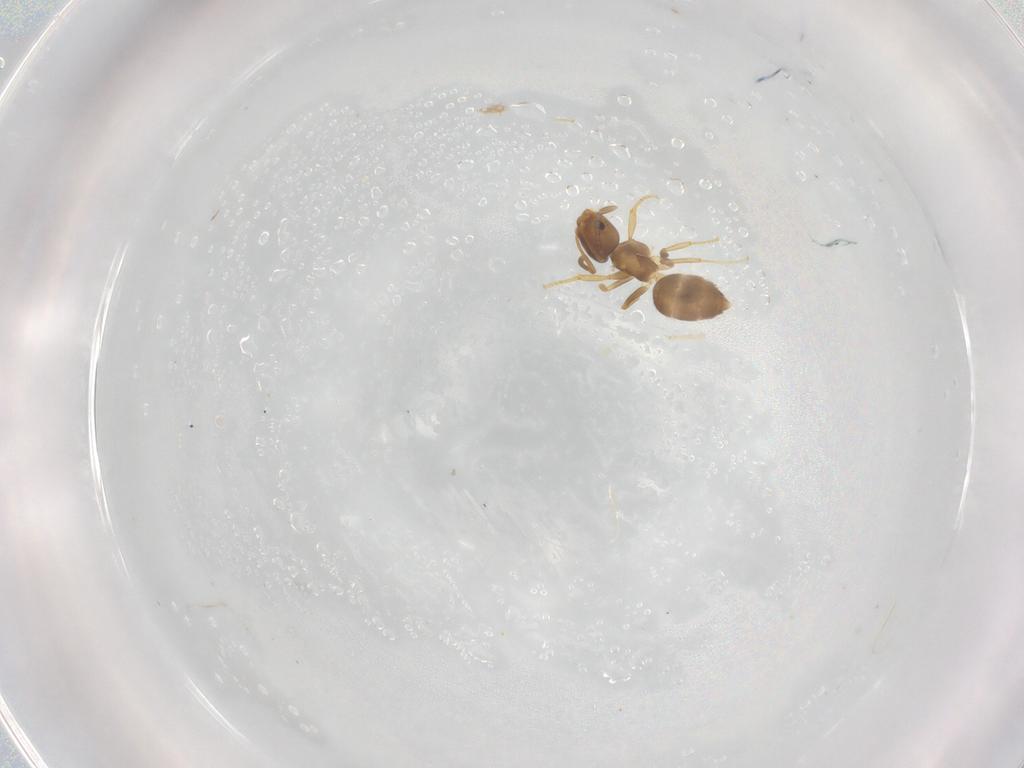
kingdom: Animalia
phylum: Arthropoda
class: Insecta
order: Hymenoptera
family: Formicidae
